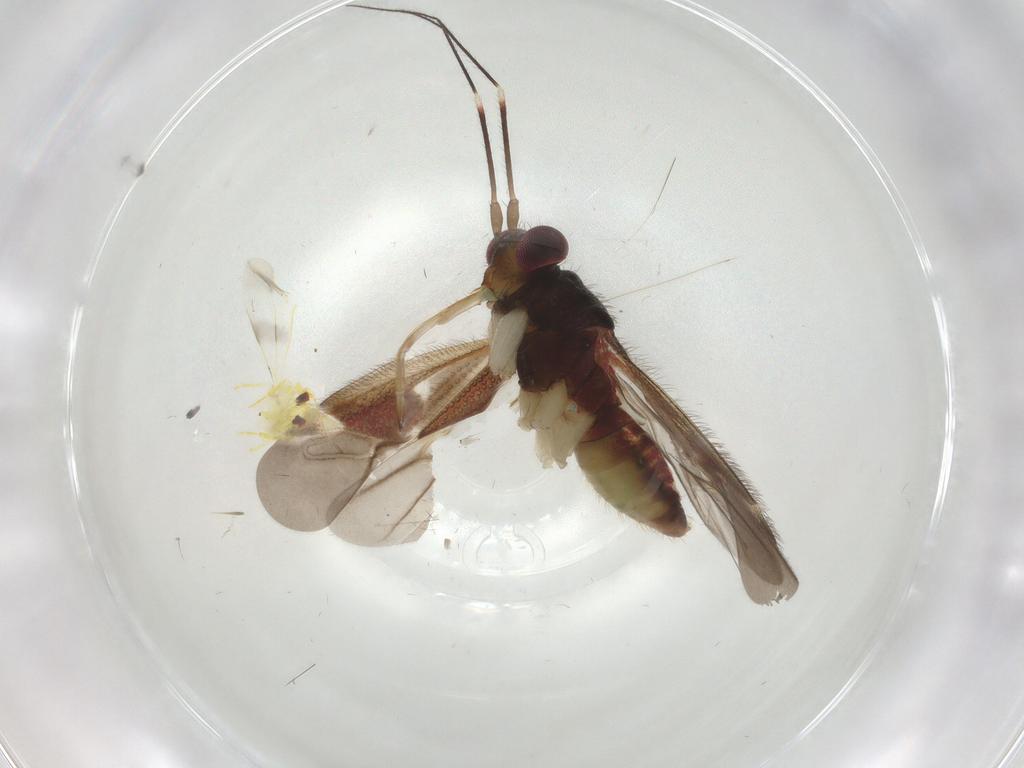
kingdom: Animalia
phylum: Arthropoda
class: Insecta
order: Hemiptera
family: Aleyrodidae
